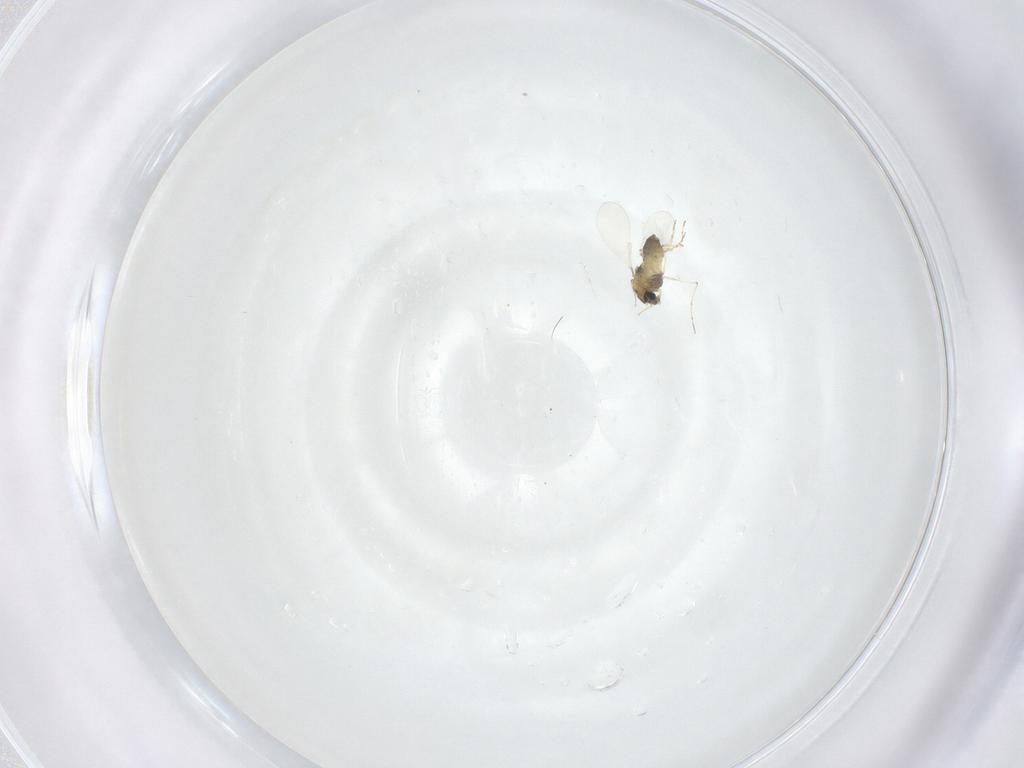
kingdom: Animalia
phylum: Arthropoda
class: Insecta
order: Diptera
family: Chironomidae
